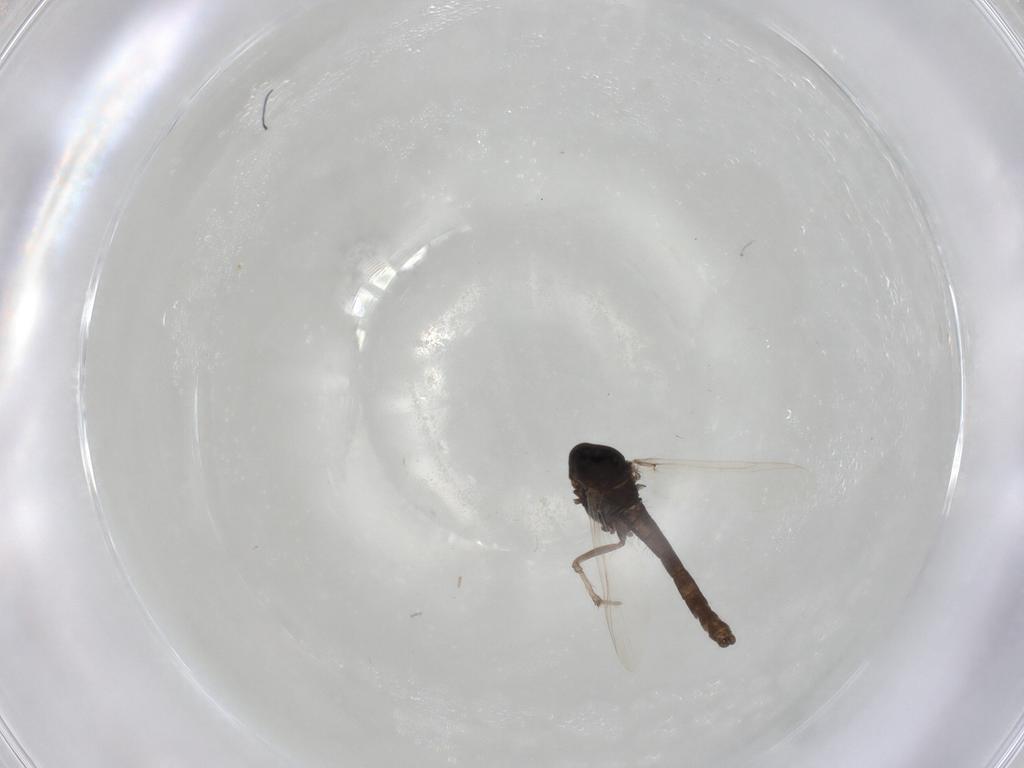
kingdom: Animalia
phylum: Arthropoda
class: Insecta
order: Diptera
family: Chironomidae
